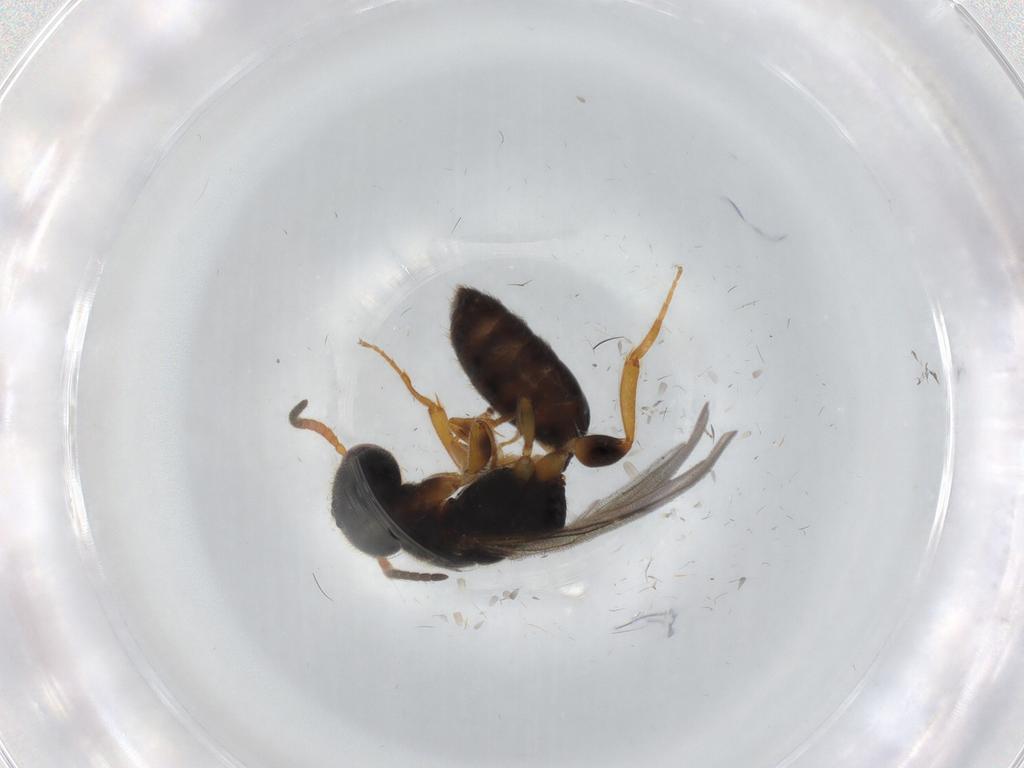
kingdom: Animalia
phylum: Arthropoda
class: Insecta
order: Hymenoptera
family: Bethylidae
